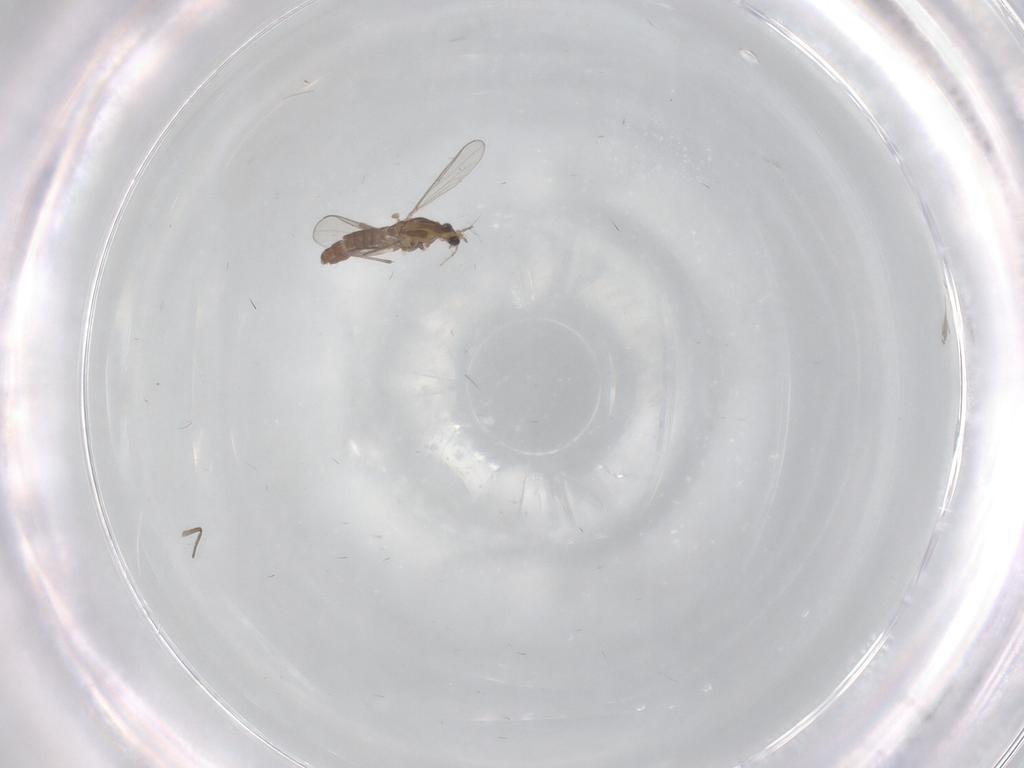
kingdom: Animalia
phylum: Arthropoda
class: Insecta
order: Diptera
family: Chironomidae
